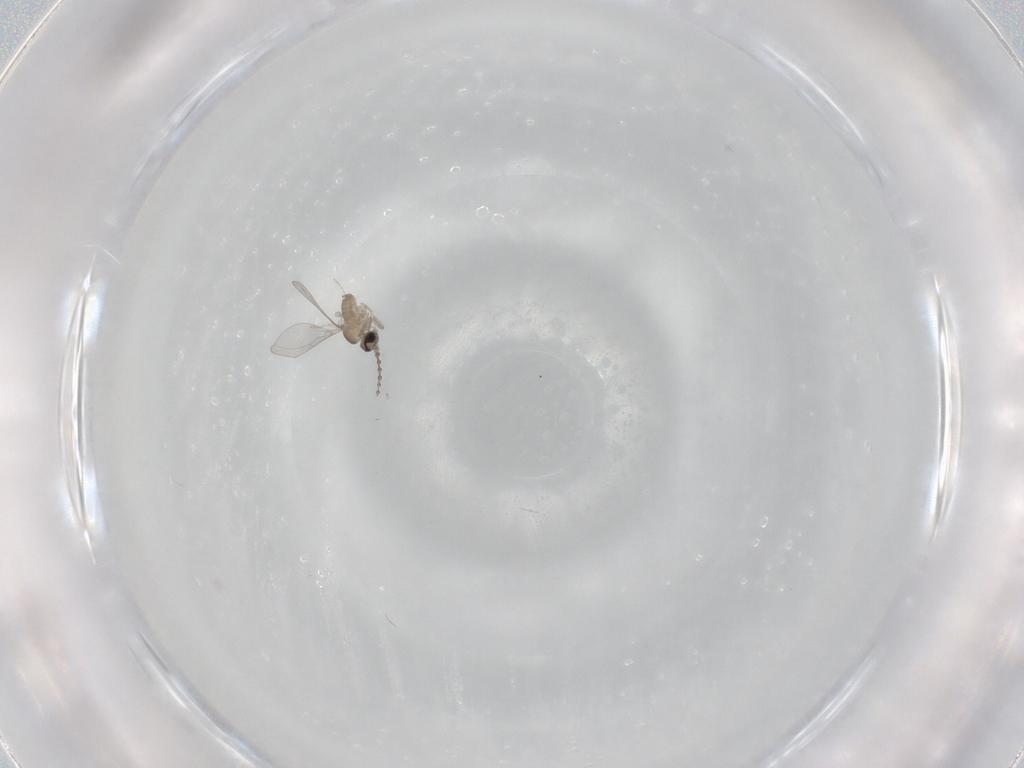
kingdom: Animalia
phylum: Arthropoda
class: Insecta
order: Diptera
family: Cecidomyiidae
